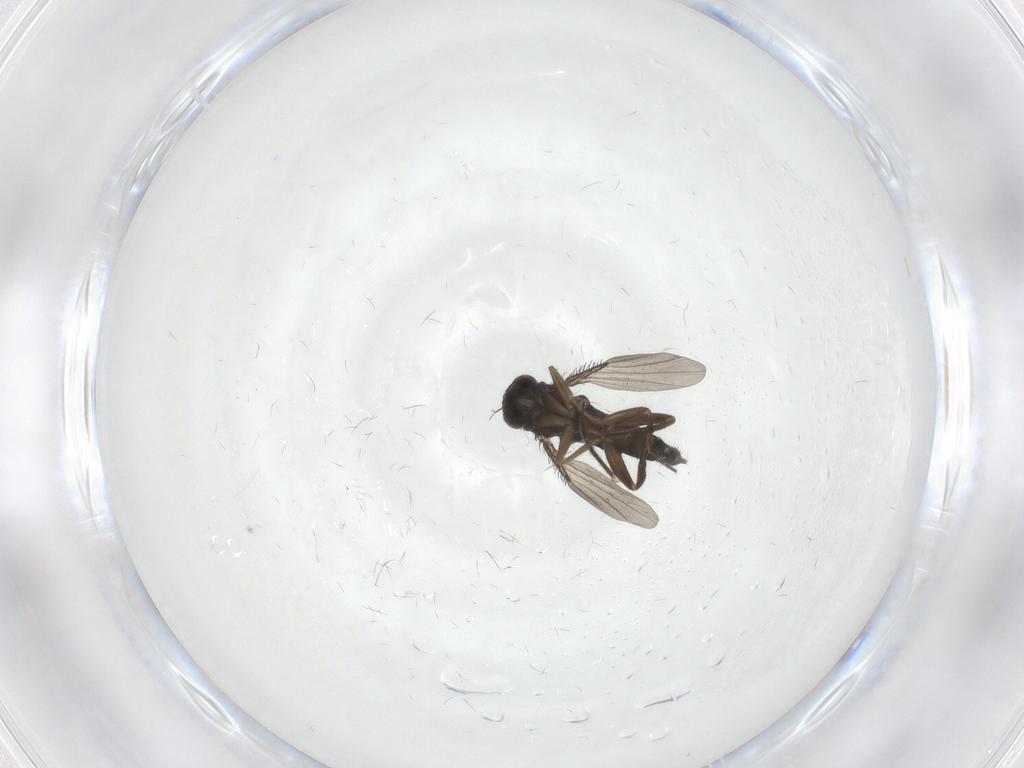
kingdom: Animalia
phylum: Arthropoda
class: Insecta
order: Diptera
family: Phoridae
